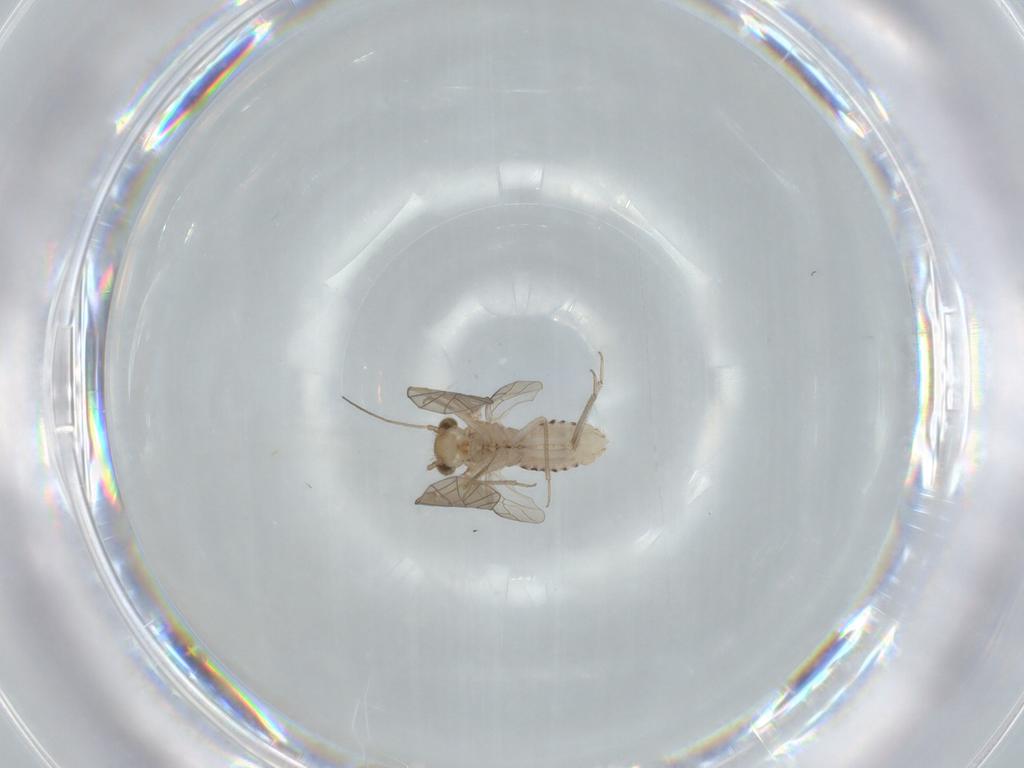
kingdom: Animalia
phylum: Arthropoda
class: Insecta
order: Psocodea
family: Lachesillidae
